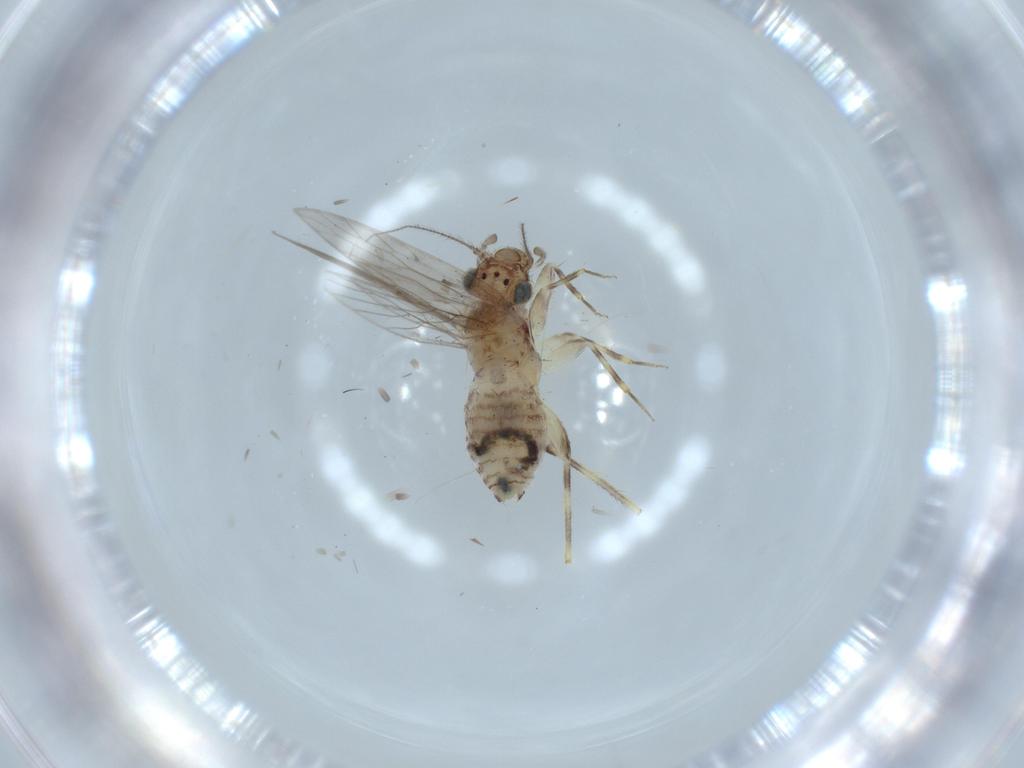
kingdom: Animalia
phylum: Arthropoda
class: Insecta
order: Psocodea
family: Lepidopsocidae
